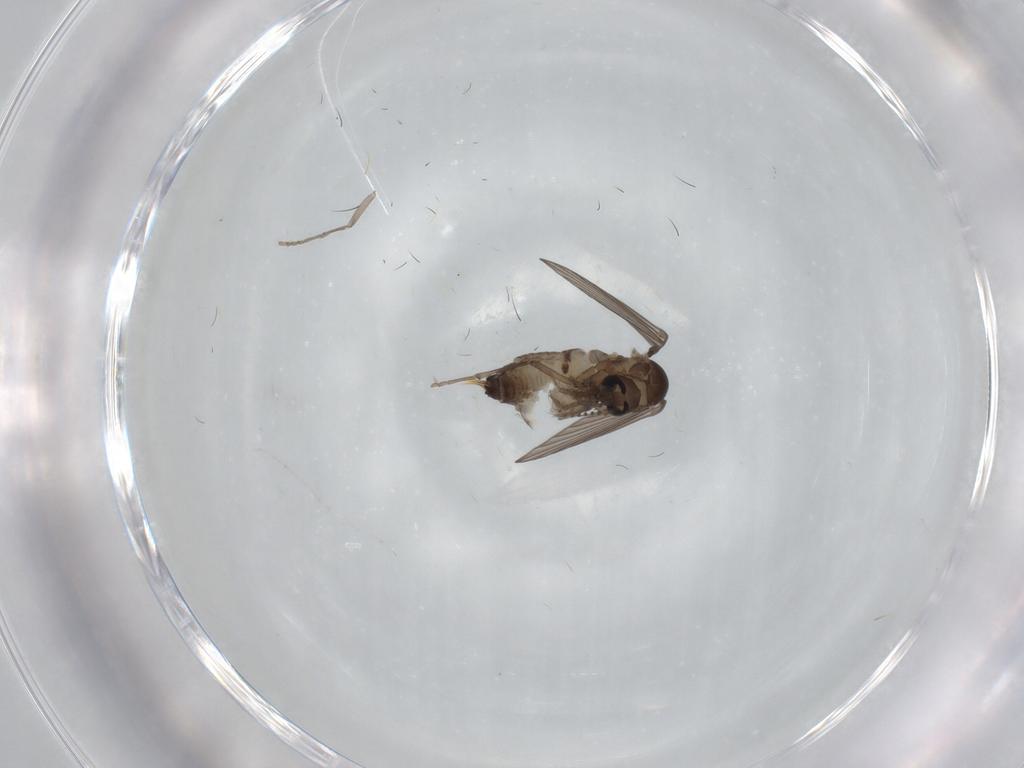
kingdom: Animalia
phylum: Arthropoda
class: Insecta
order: Diptera
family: Psychodidae
